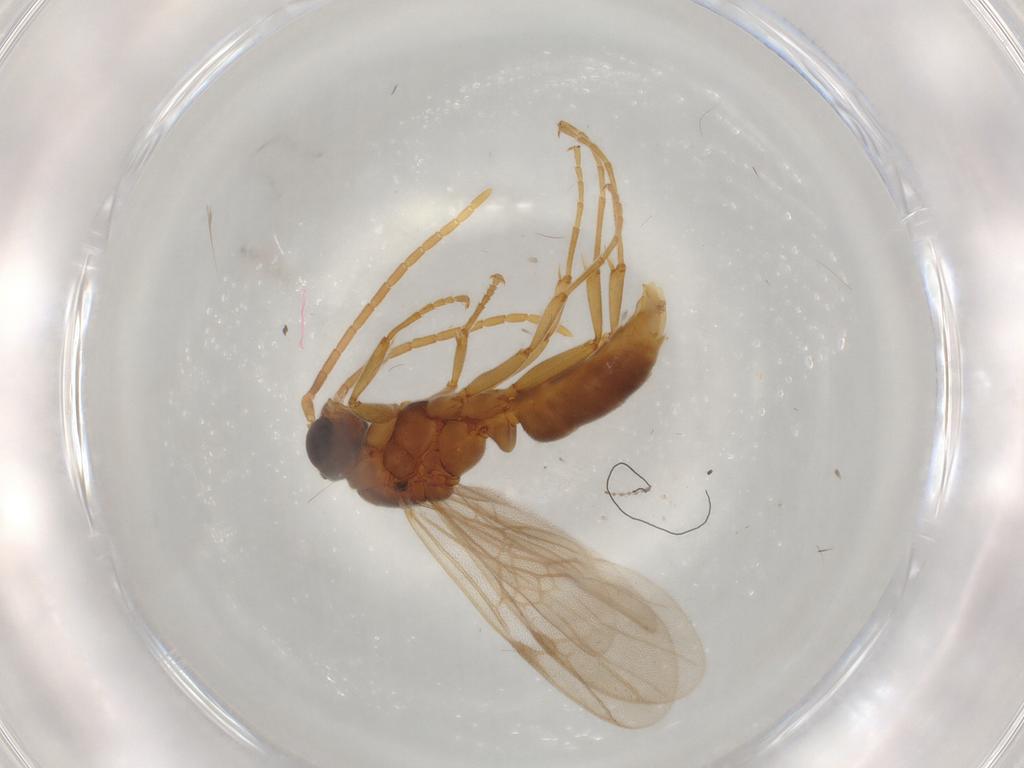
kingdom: Animalia
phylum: Arthropoda
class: Insecta
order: Hymenoptera
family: Formicidae
